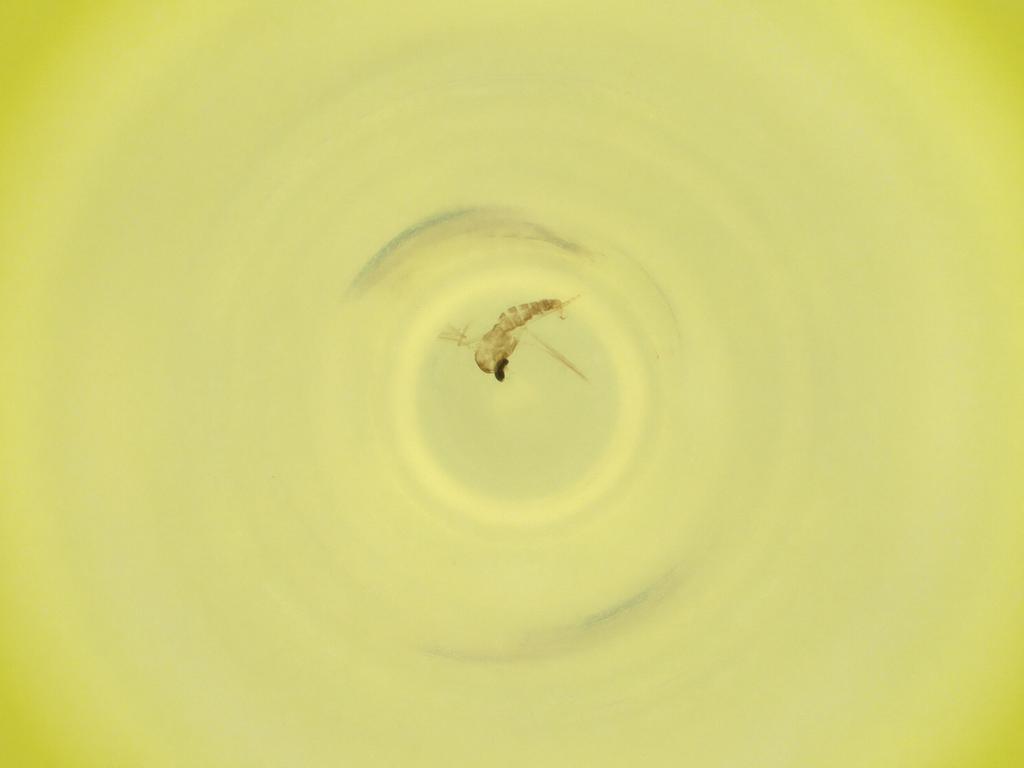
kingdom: Animalia
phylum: Arthropoda
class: Insecta
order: Diptera
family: Cecidomyiidae
